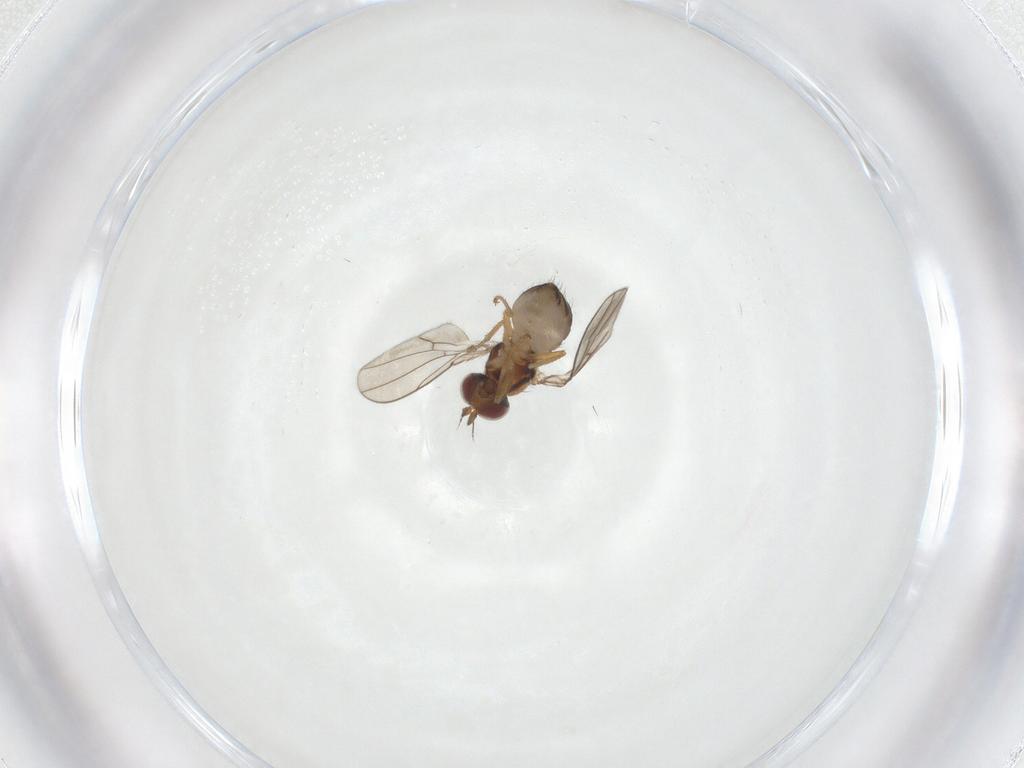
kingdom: Animalia
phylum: Arthropoda
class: Insecta
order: Diptera
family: Ephydridae
